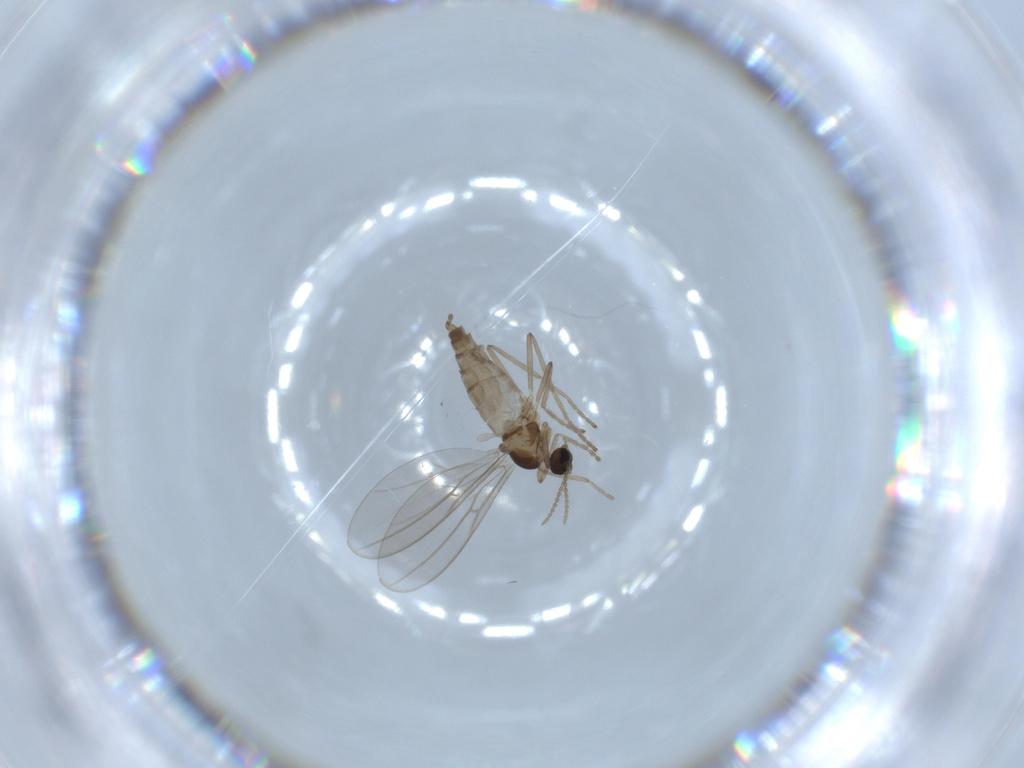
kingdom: Animalia
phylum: Arthropoda
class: Insecta
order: Diptera
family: Cecidomyiidae
